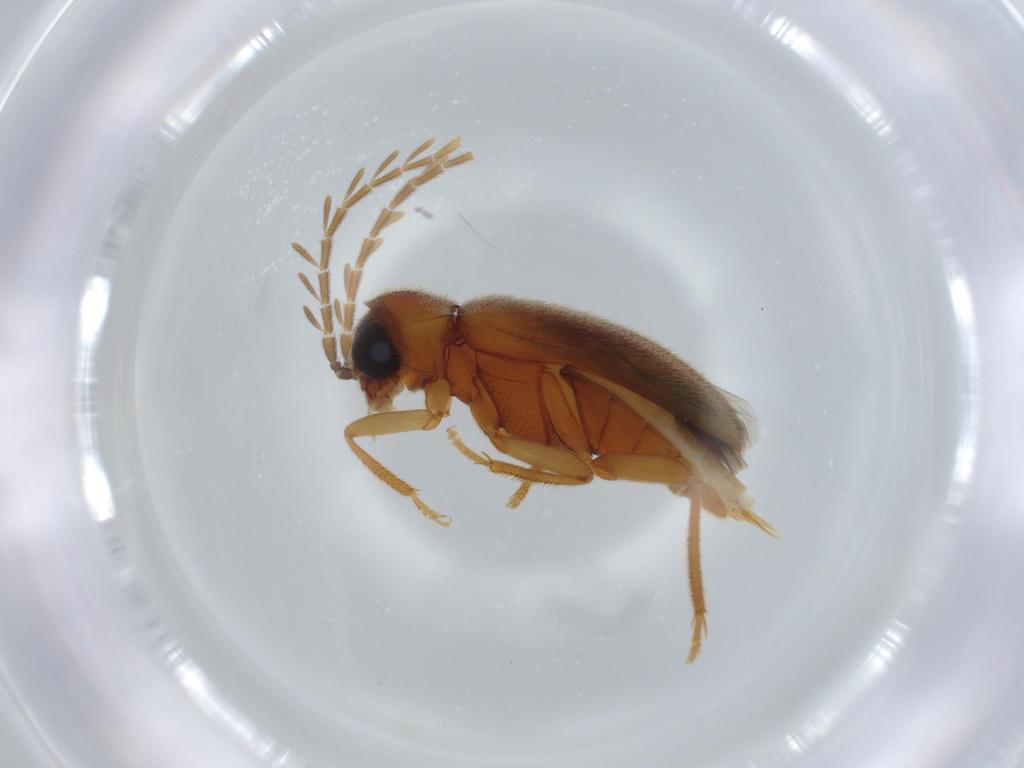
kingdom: Animalia
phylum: Arthropoda
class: Insecta
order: Coleoptera
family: Ptilodactylidae
